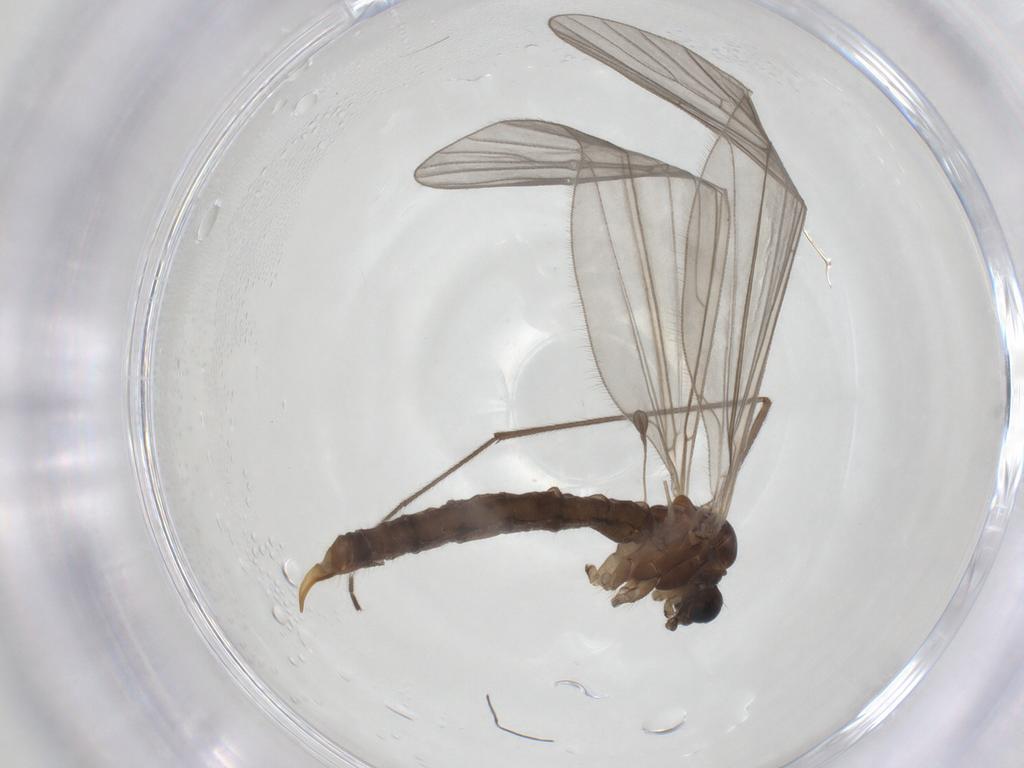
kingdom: Animalia
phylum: Arthropoda
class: Insecta
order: Diptera
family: Trichoceridae
